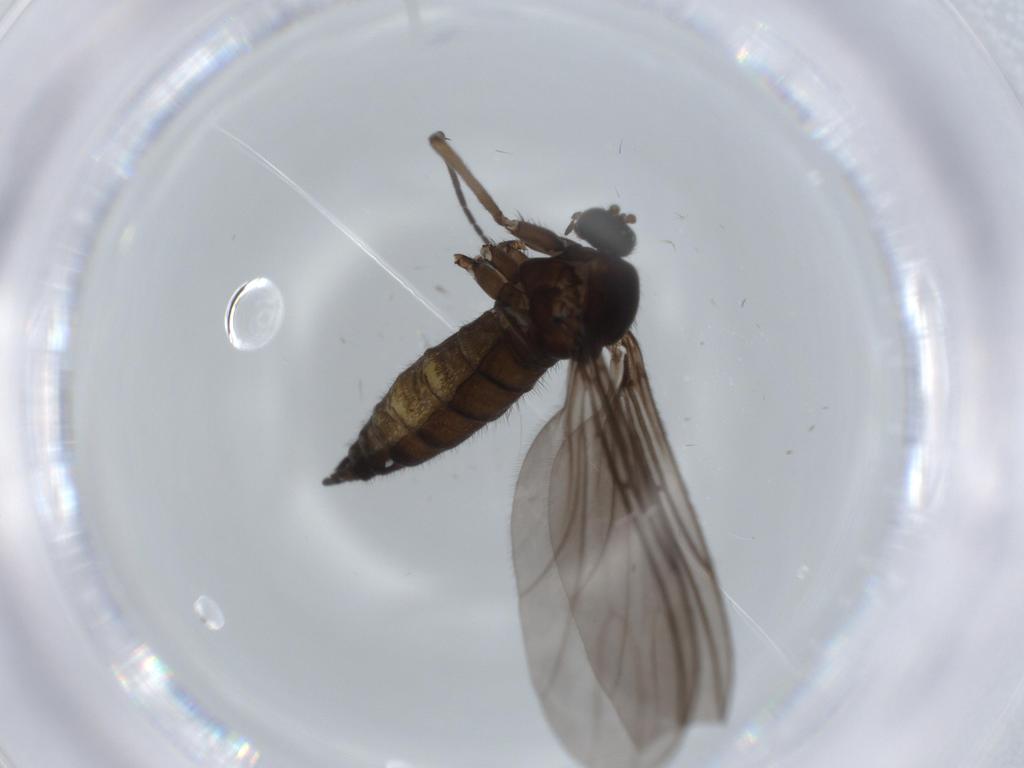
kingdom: Animalia
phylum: Arthropoda
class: Insecta
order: Diptera
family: Sciaridae
